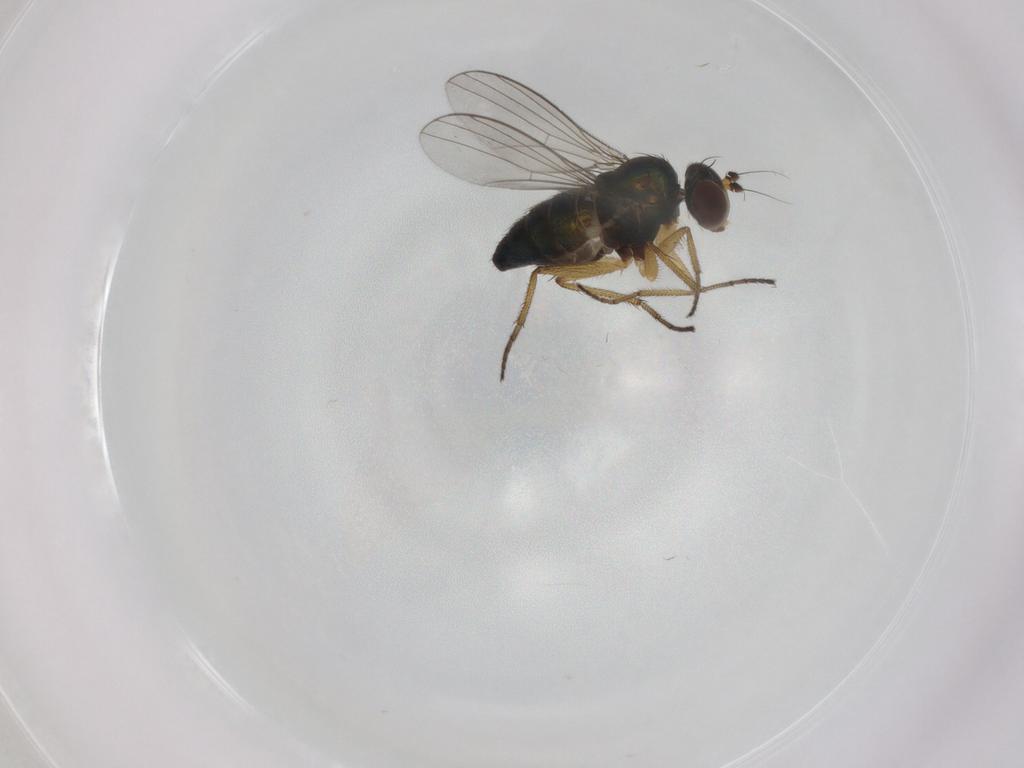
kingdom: Animalia
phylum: Arthropoda
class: Insecta
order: Diptera
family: Dolichopodidae
